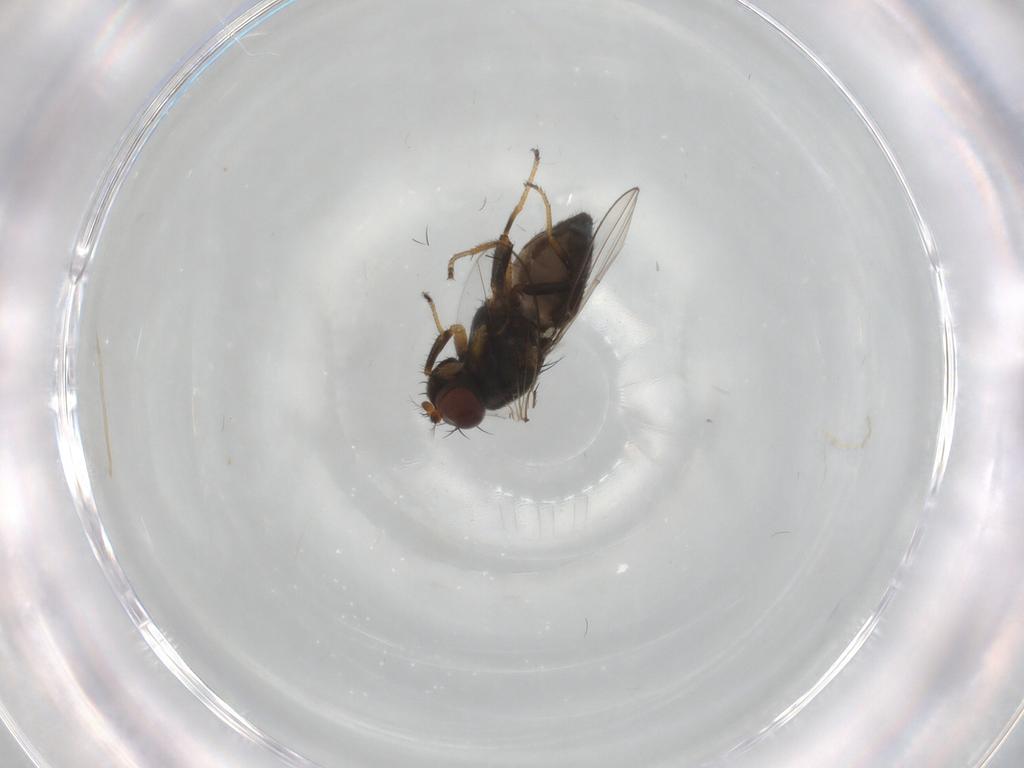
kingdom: Animalia
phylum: Arthropoda
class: Insecta
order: Diptera
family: Ephydridae
